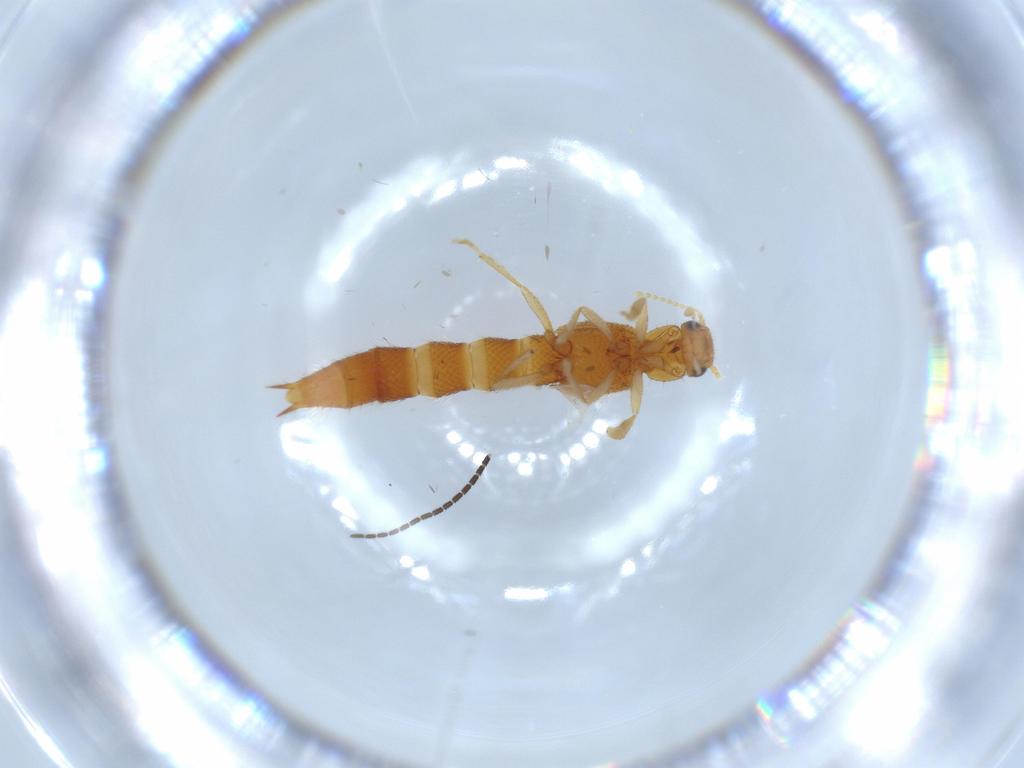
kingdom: Animalia
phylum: Arthropoda
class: Insecta
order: Coleoptera
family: Staphylinidae
